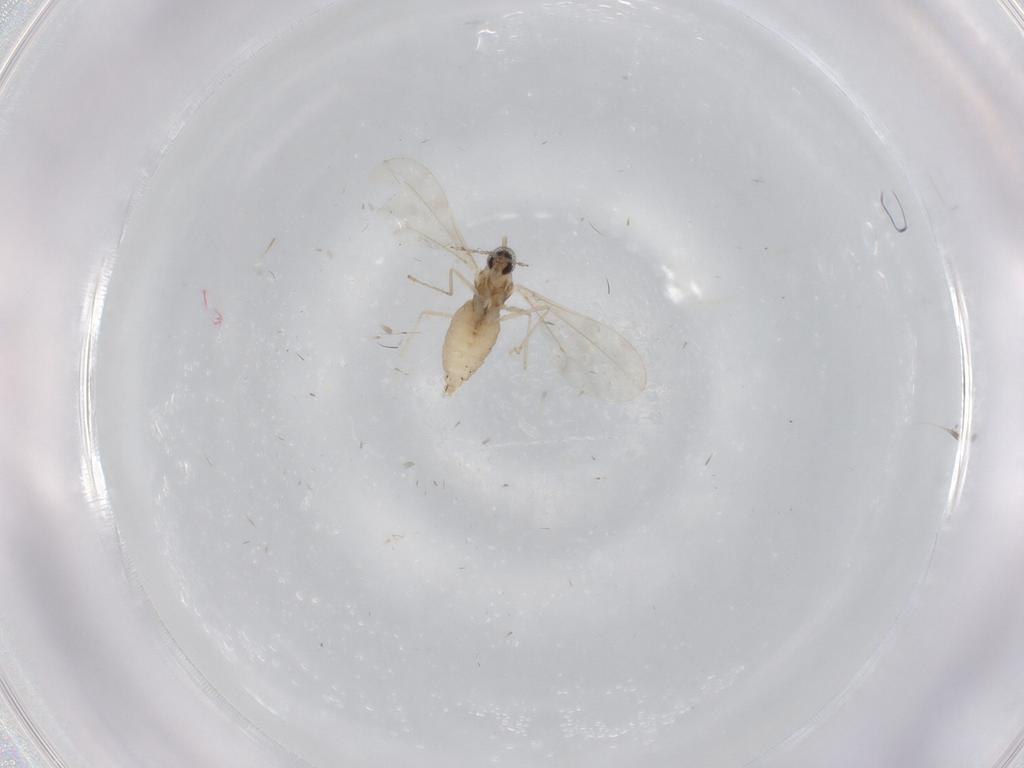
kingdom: Animalia
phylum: Arthropoda
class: Insecta
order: Diptera
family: Cecidomyiidae
